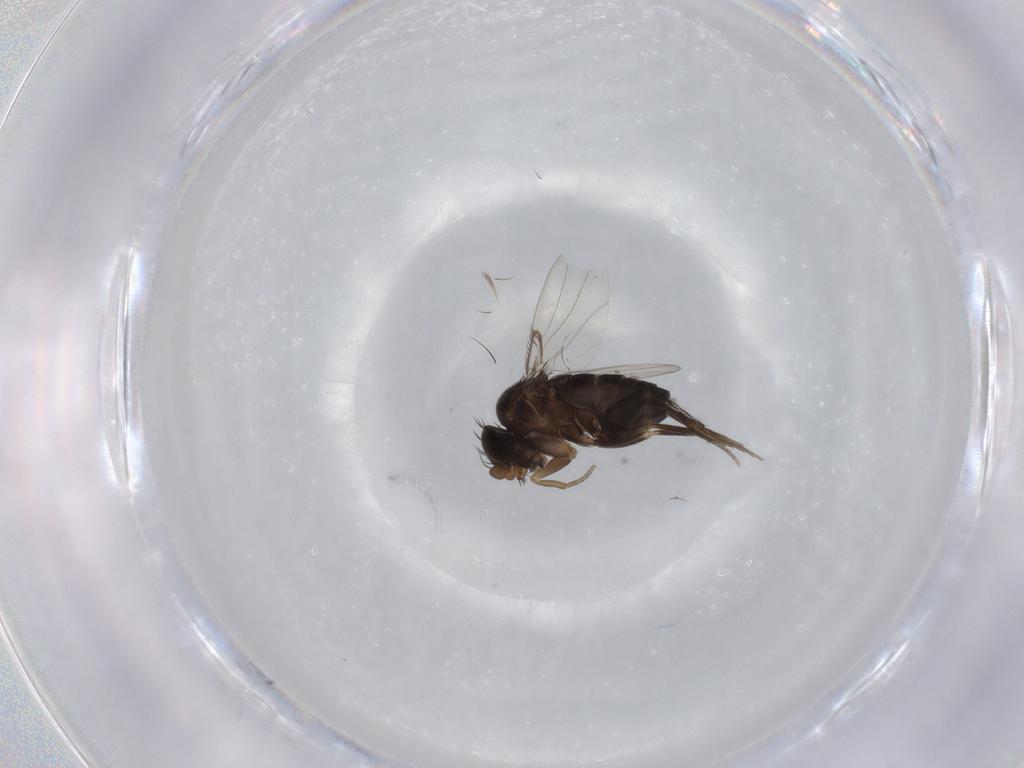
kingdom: Animalia
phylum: Arthropoda
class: Insecta
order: Diptera
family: Phoridae
